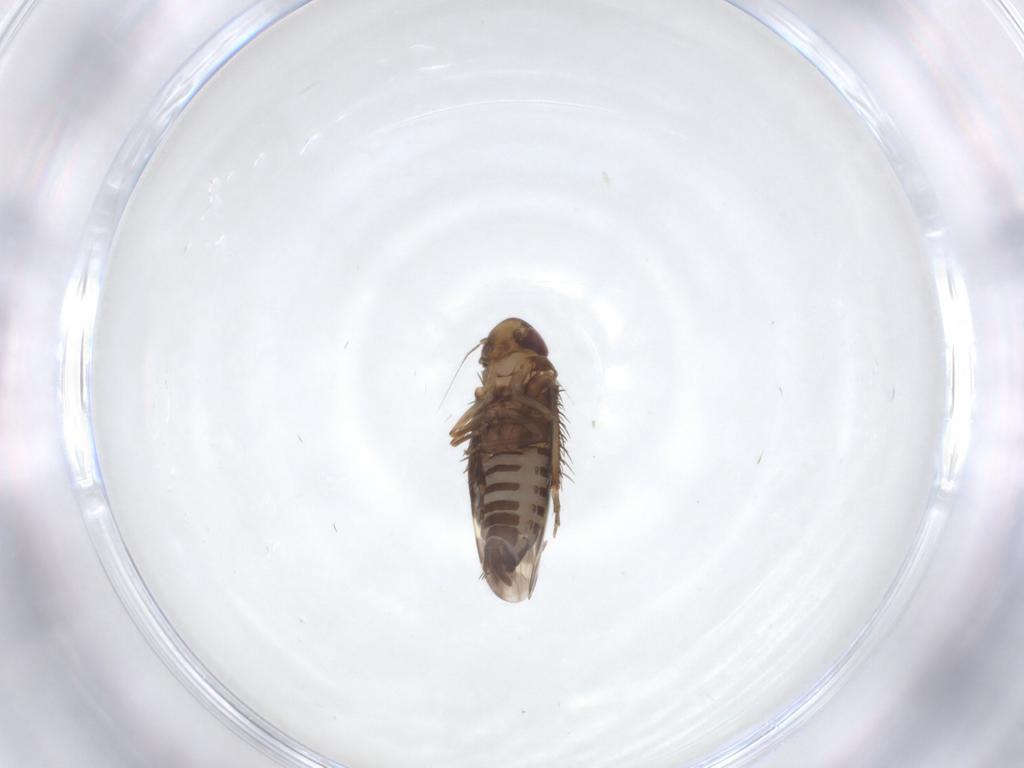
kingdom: Animalia
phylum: Arthropoda
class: Insecta
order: Hemiptera
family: Cicadellidae
